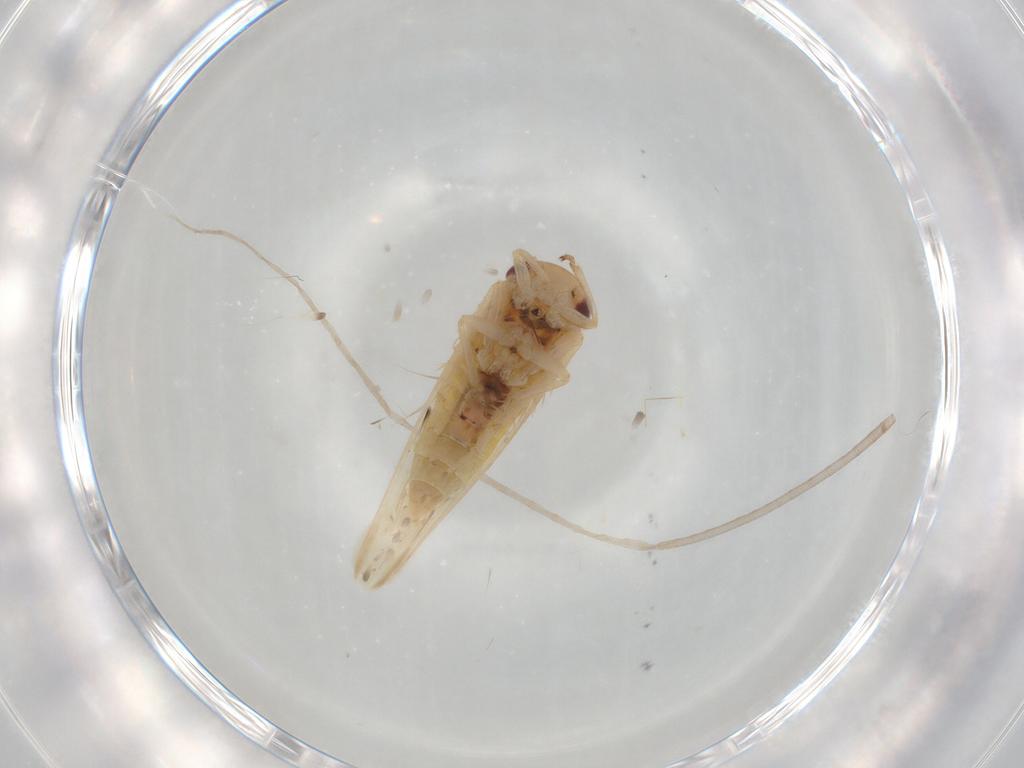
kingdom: Animalia
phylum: Arthropoda
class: Insecta
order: Hemiptera
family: Cicadellidae
